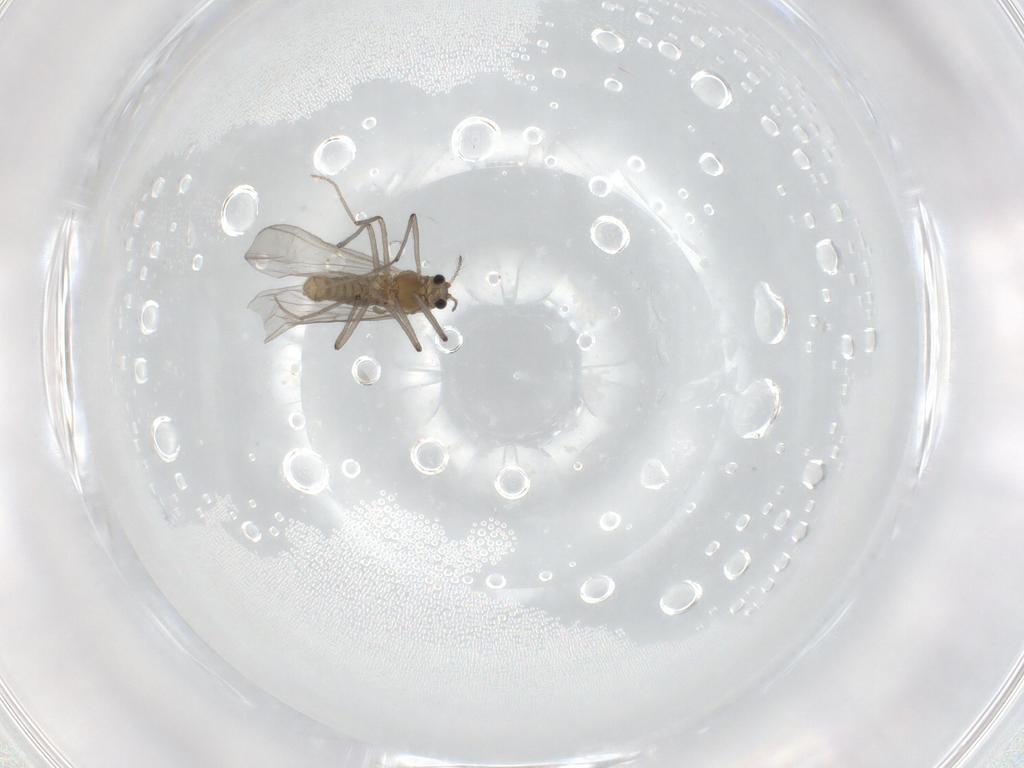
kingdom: Animalia
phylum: Arthropoda
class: Insecta
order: Diptera
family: Chironomidae
